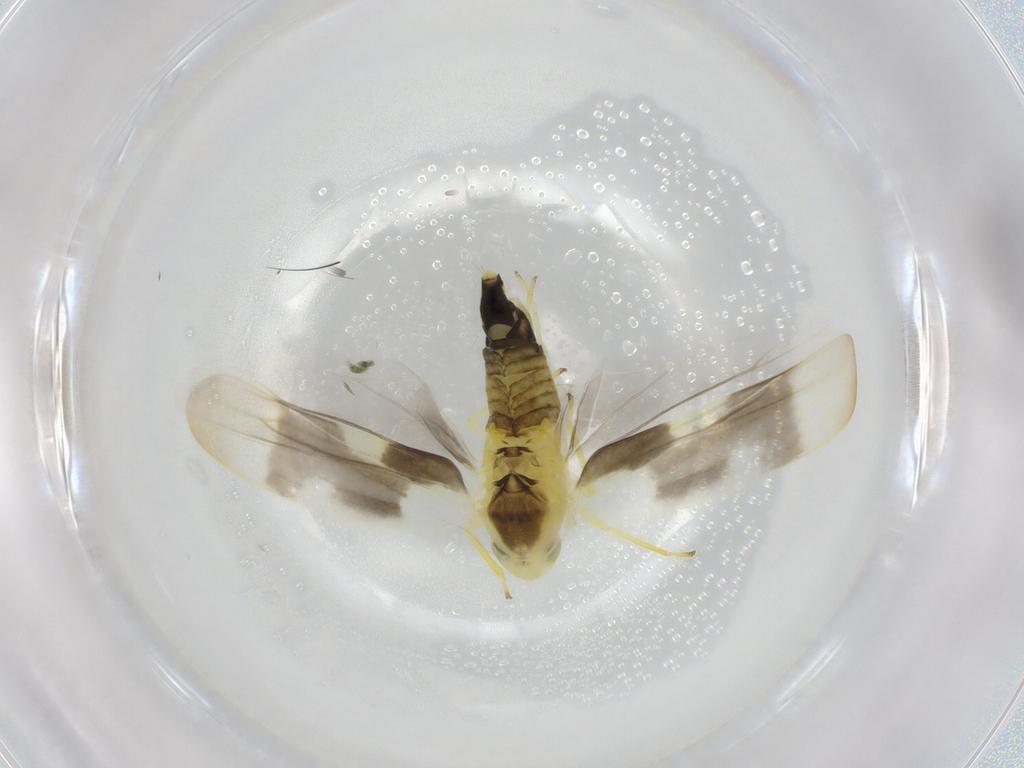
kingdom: Animalia
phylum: Arthropoda
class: Insecta
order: Hemiptera
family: Cicadellidae
